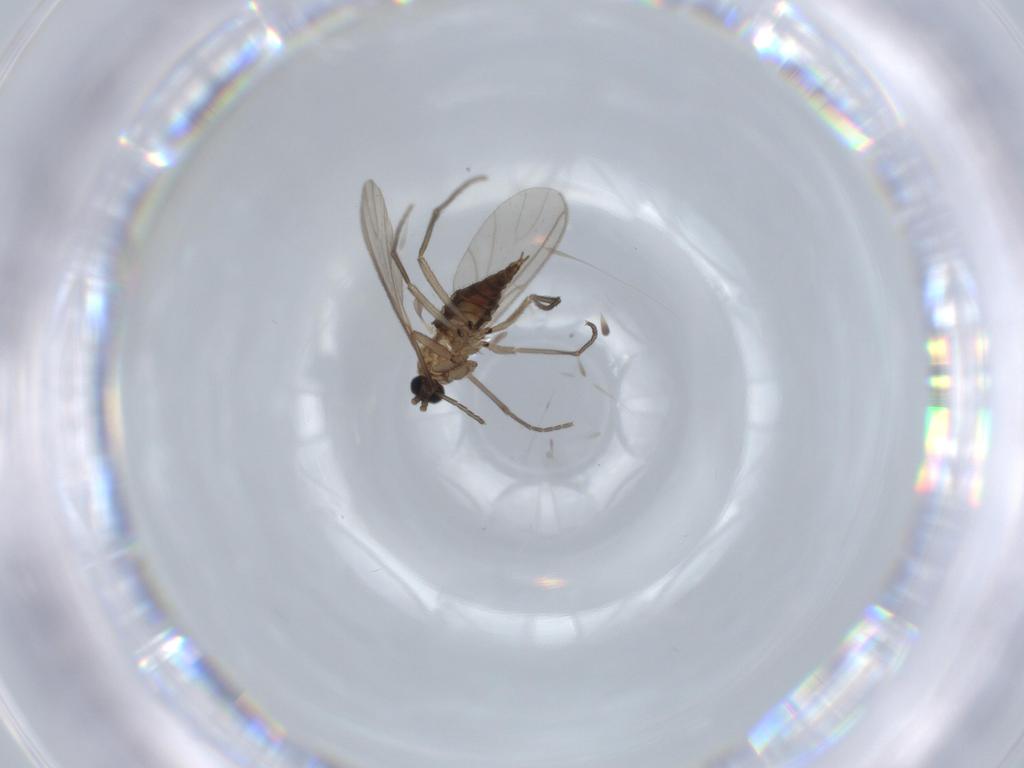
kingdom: Animalia
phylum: Arthropoda
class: Insecta
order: Diptera
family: Sciaridae
